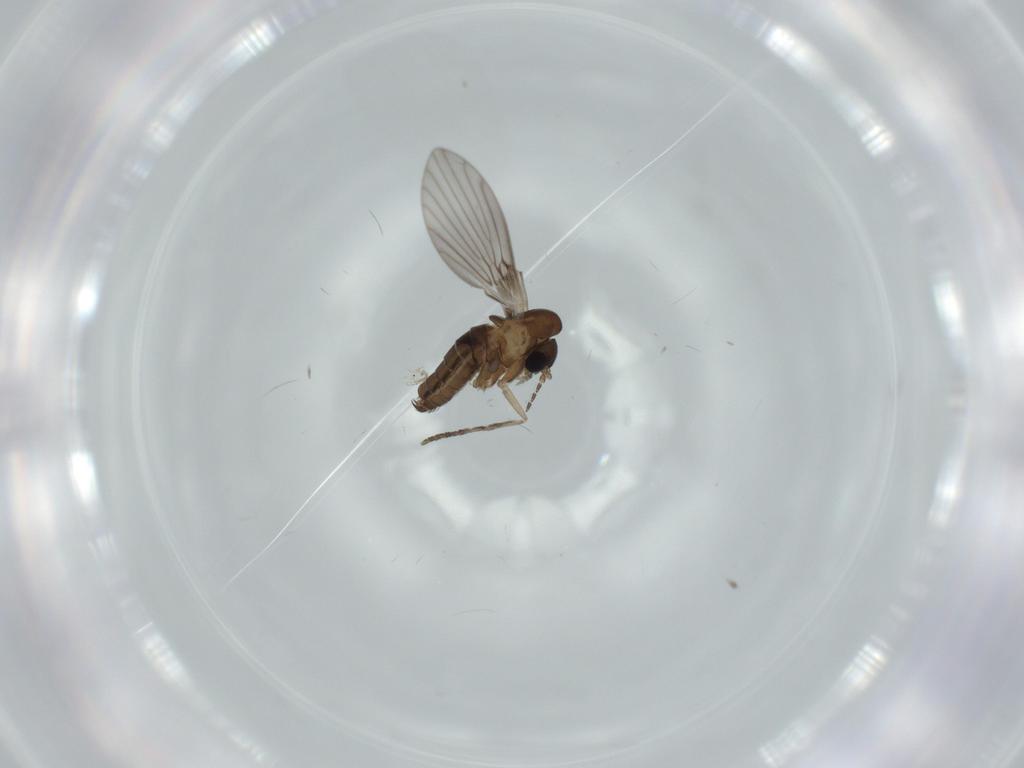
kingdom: Animalia
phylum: Arthropoda
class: Insecta
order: Diptera
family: Psychodidae
